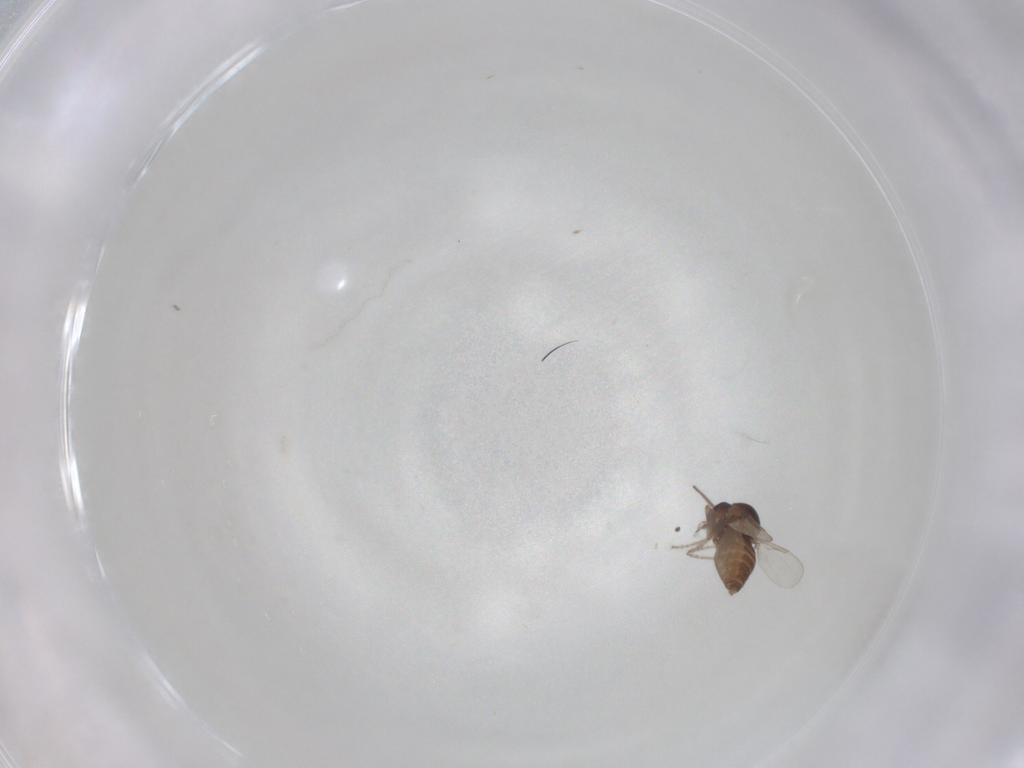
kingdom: Animalia
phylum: Arthropoda
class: Insecta
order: Diptera
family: Ceratopogonidae
